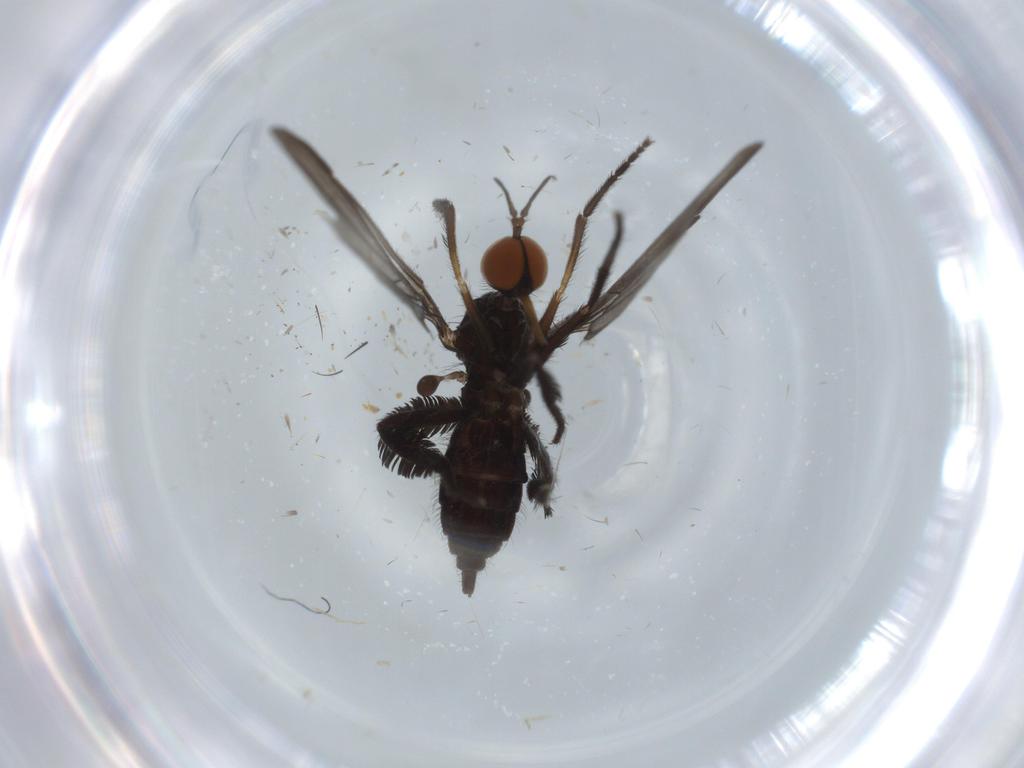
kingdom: Animalia
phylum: Arthropoda
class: Insecta
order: Diptera
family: Empididae
